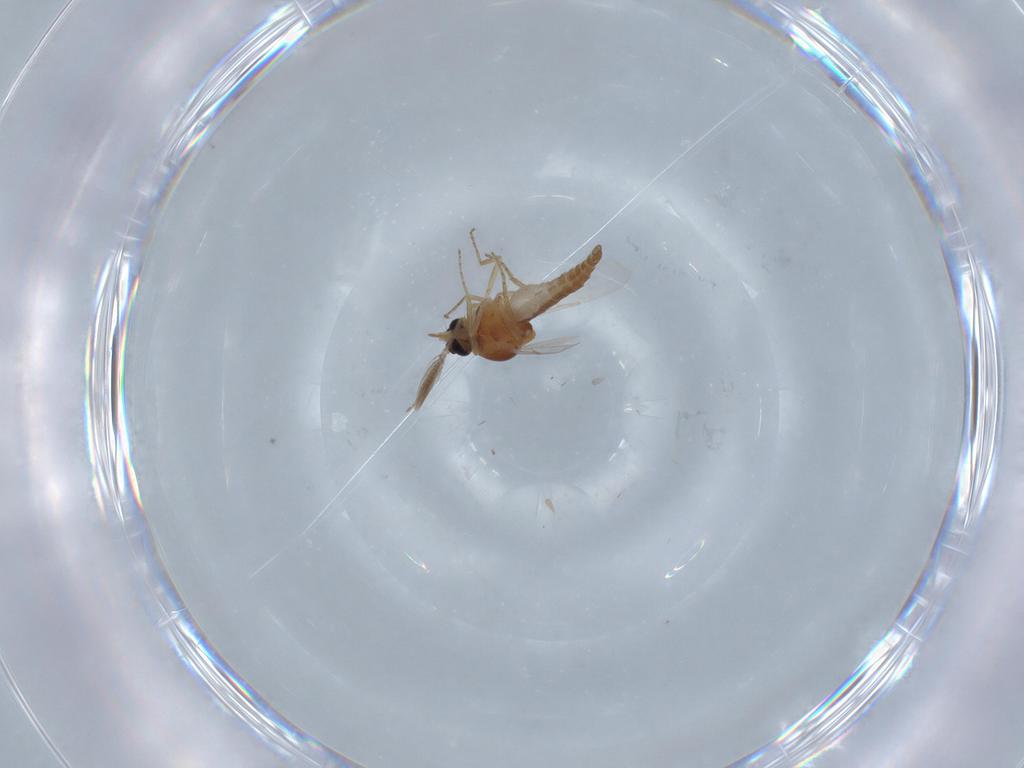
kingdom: Animalia
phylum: Arthropoda
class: Insecta
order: Diptera
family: Ceratopogonidae
